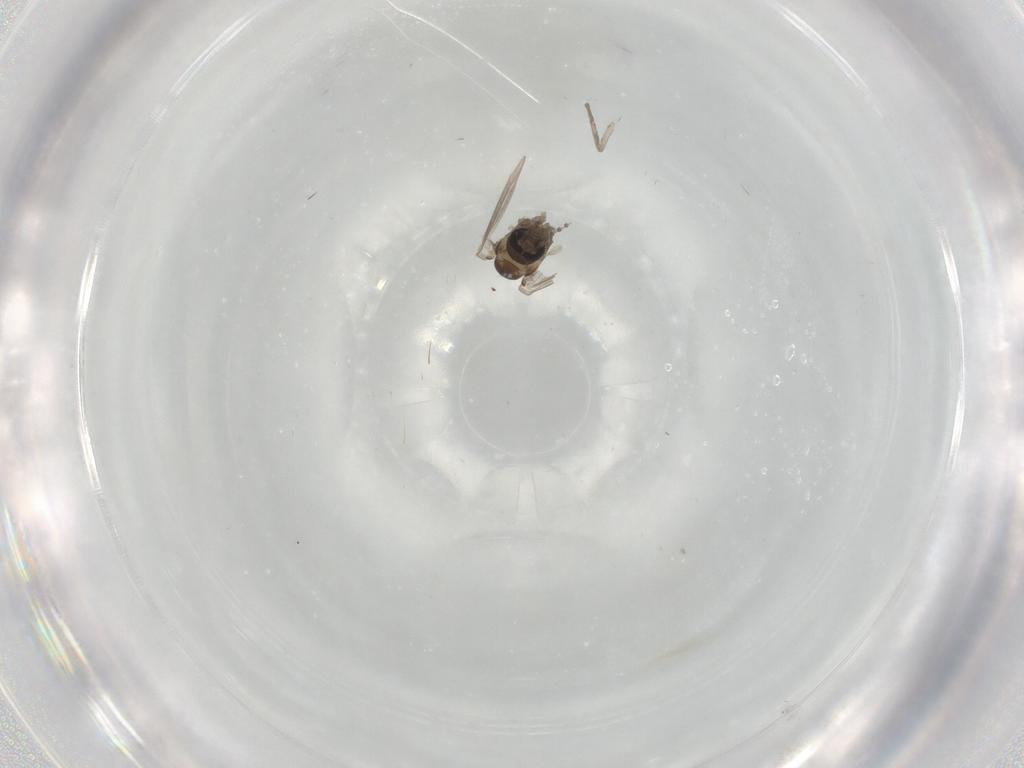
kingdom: Animalia
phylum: Arthropoda
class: Insecta
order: Diptera
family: Psychodidae
